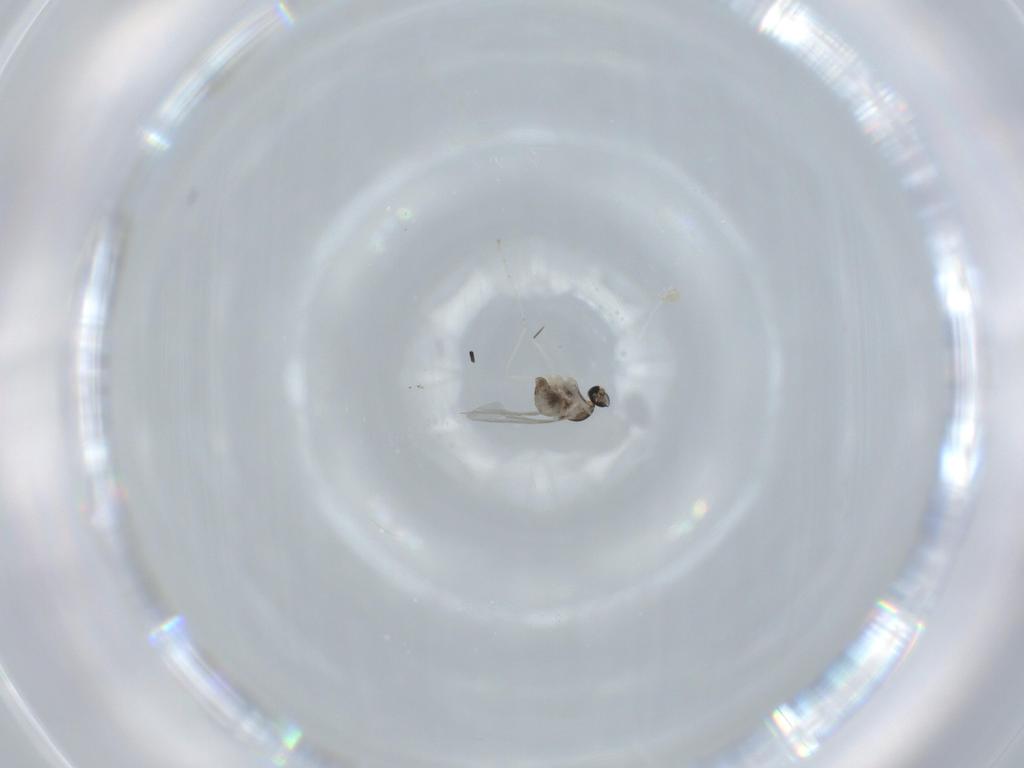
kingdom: Animalia
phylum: Arthropoda
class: Insecta
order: Diptera
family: Cecidomyiidae
